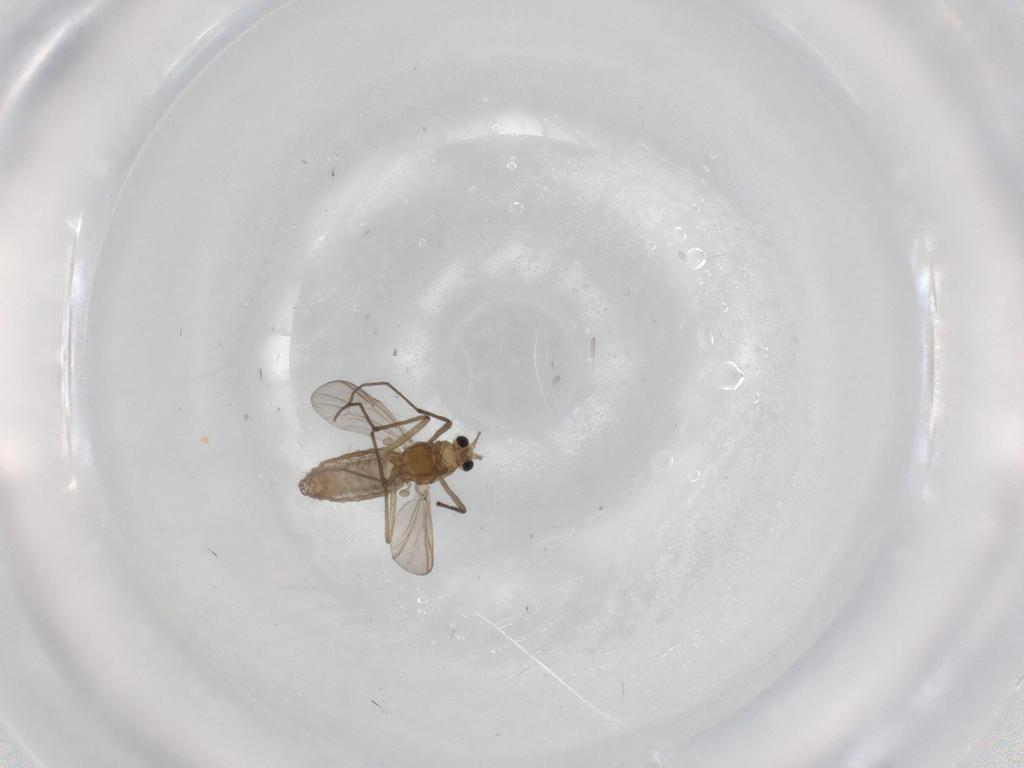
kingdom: Animalia
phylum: Arthropoda
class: Insecta
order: Diptera
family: Chironomidae
